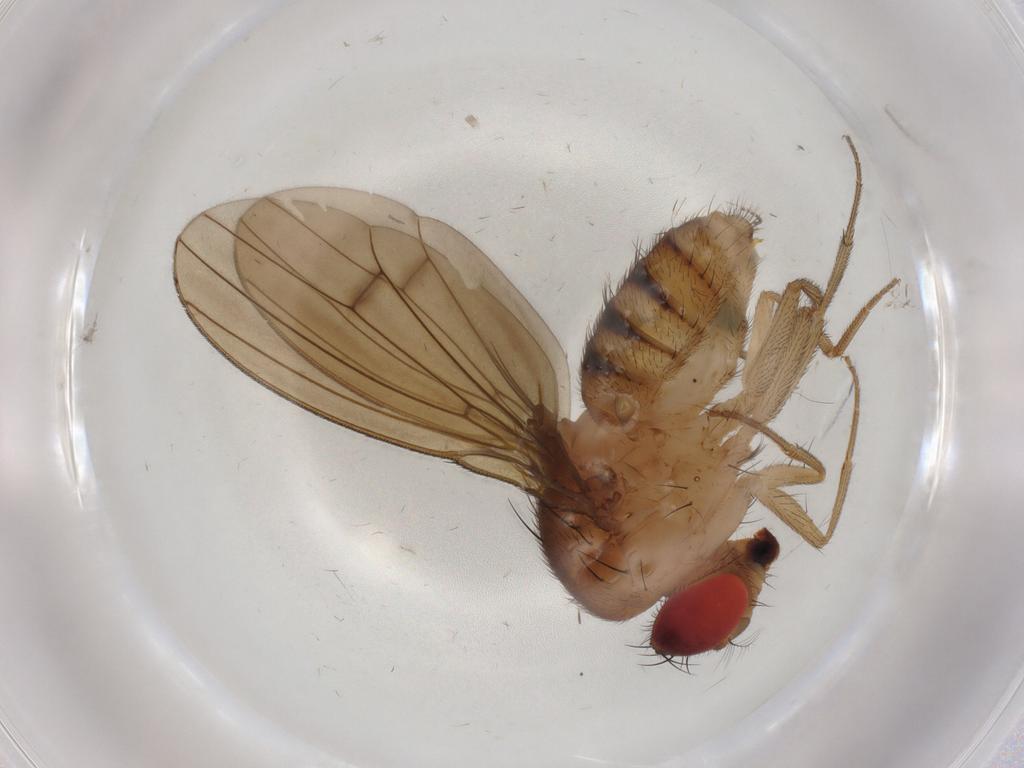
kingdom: Animalia
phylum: Arthropoda
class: Insecta
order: Diptera
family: Drosophilidae
